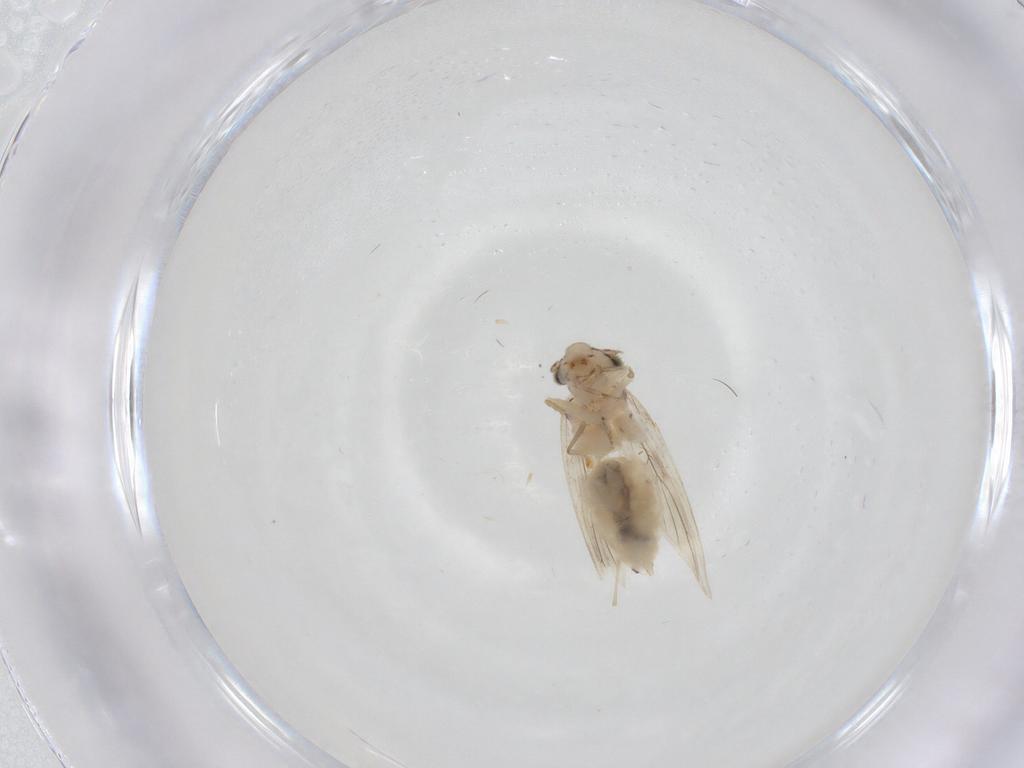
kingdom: Animalia
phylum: Arthropoda
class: Insecta
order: Psocodea
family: Lepidopsocidae
